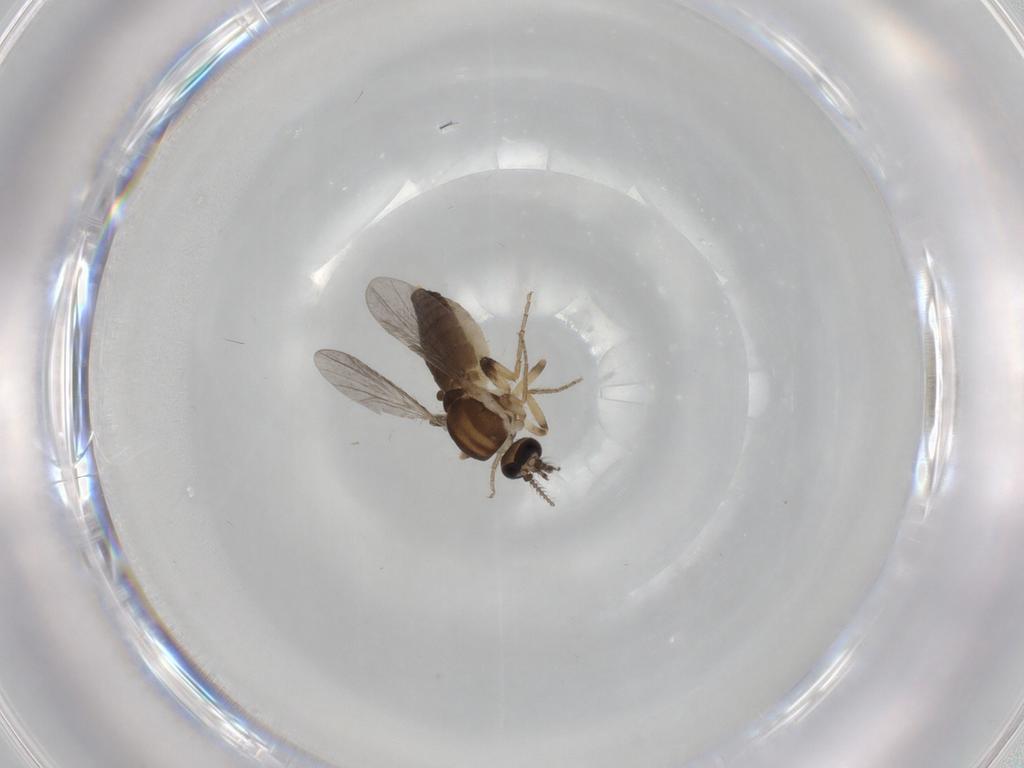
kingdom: Animalia
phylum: Arthropoda
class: Insecta
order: Diptera
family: Ceratopogonidae
